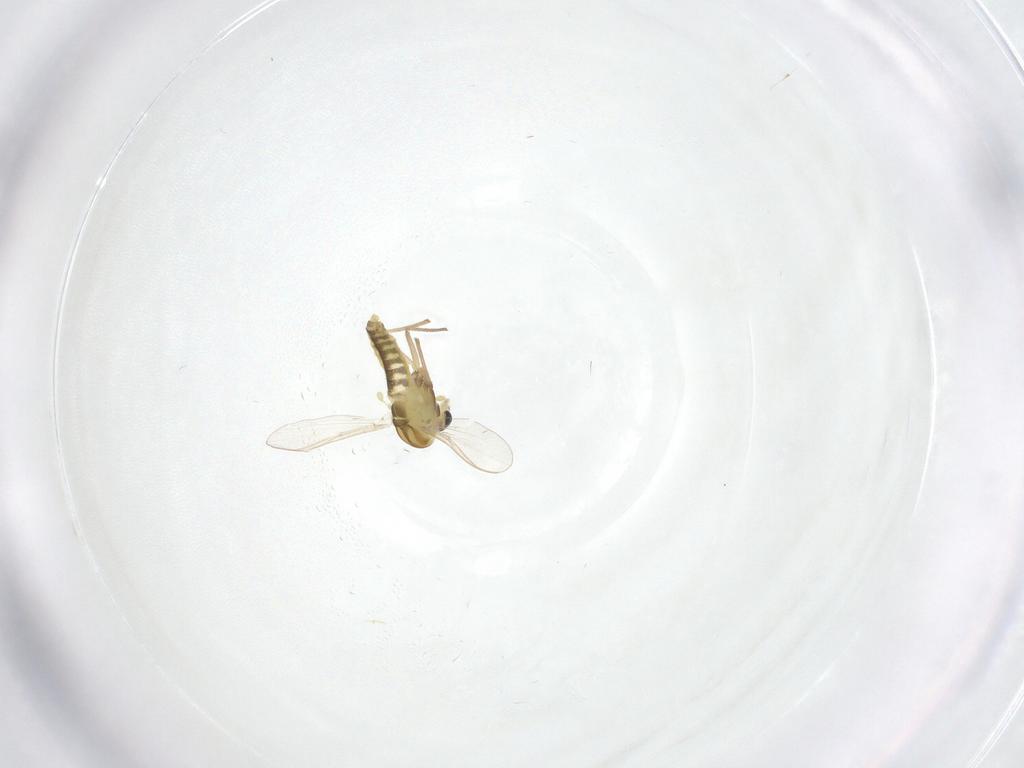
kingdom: Animalia
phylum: Arthropoda
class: Insecta
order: Diptera
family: Chironomidae
